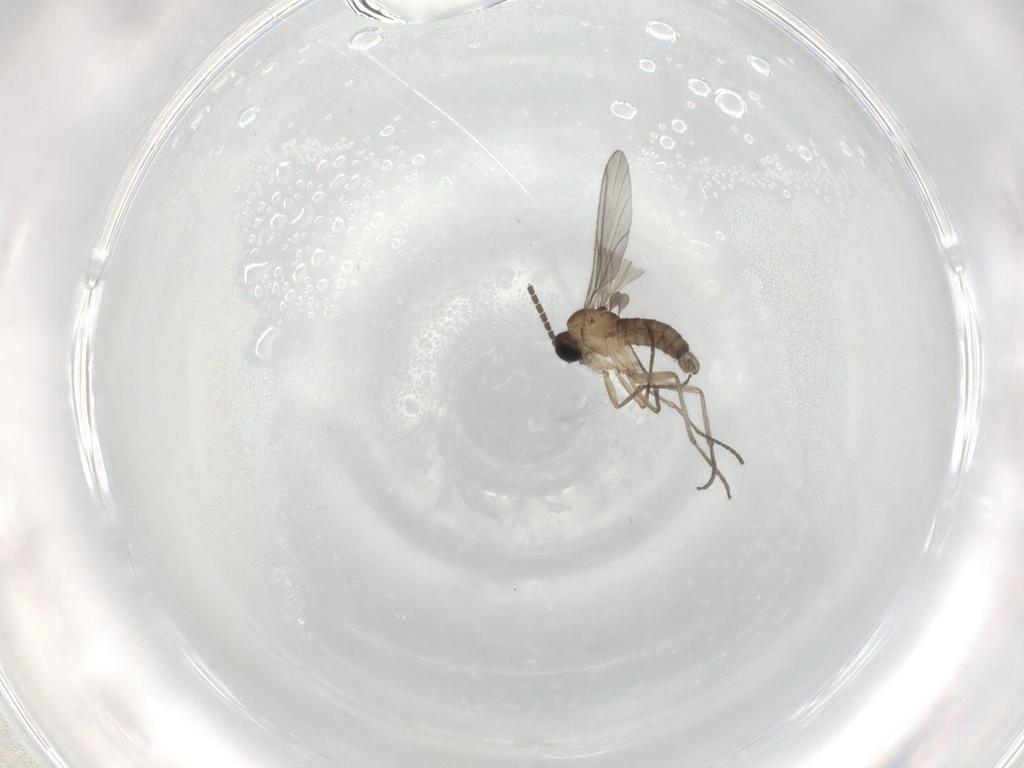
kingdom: Animalia
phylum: Arthropoda
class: Insecta
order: Diptera
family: Sciaridae
